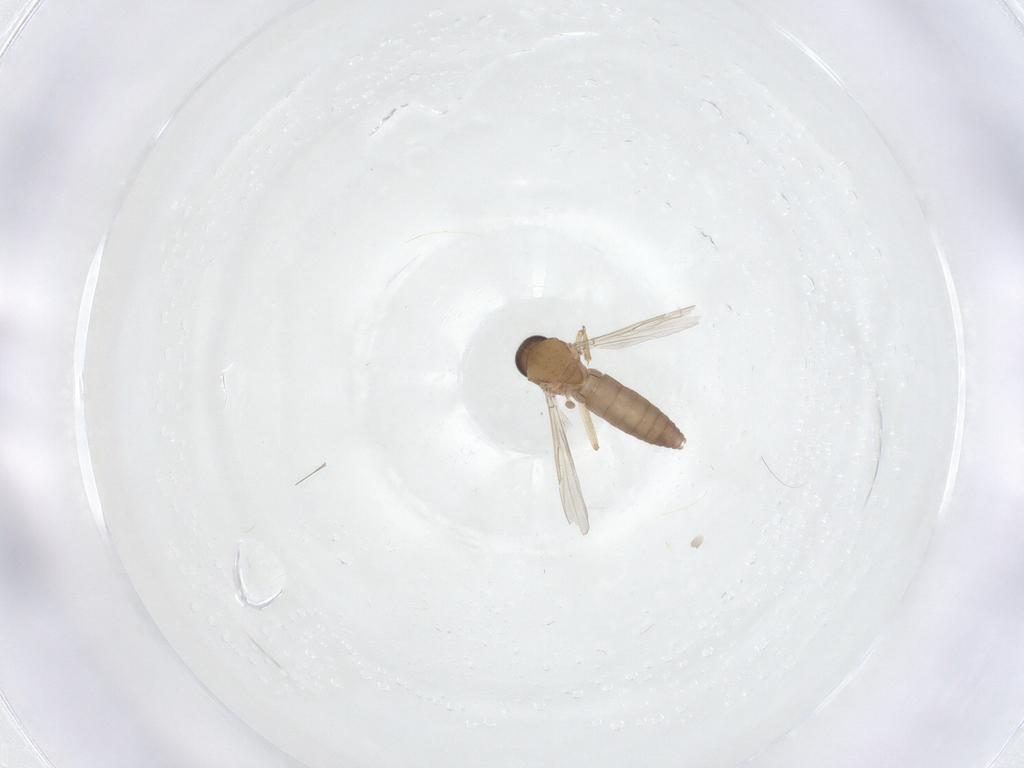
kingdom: Animalia
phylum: Arthropoda
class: Insecta
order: Diptera
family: Ceratopogonidae
